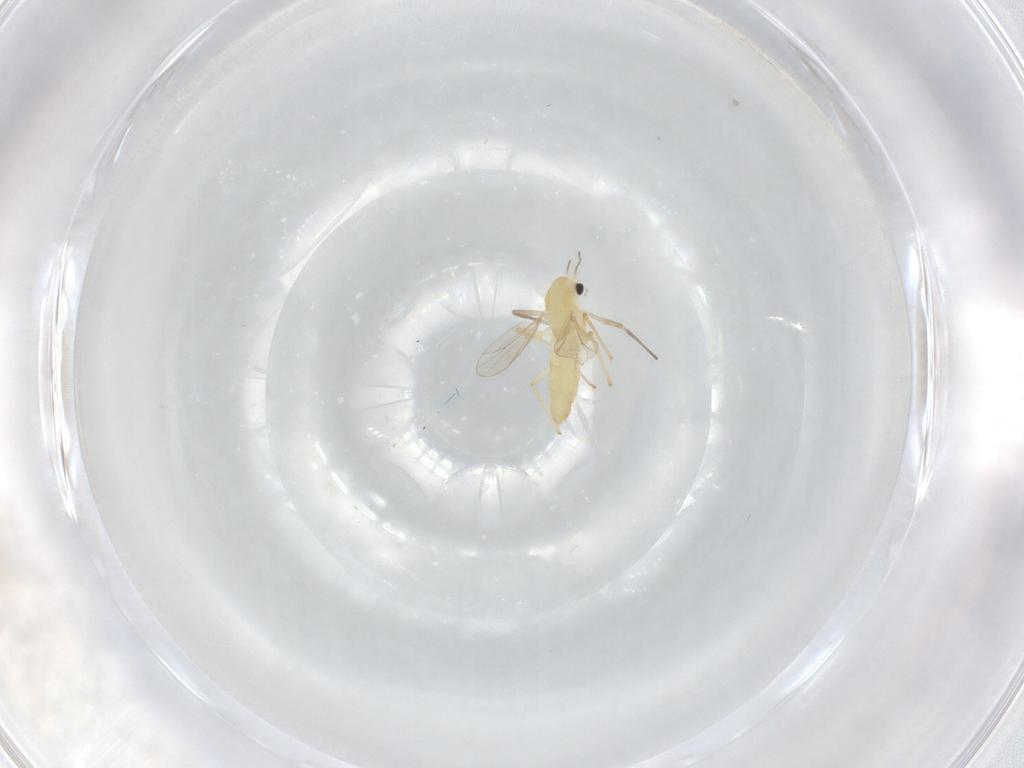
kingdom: Animalia
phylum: Arthropoda
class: Insecta
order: Diptera
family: Chironomidae
